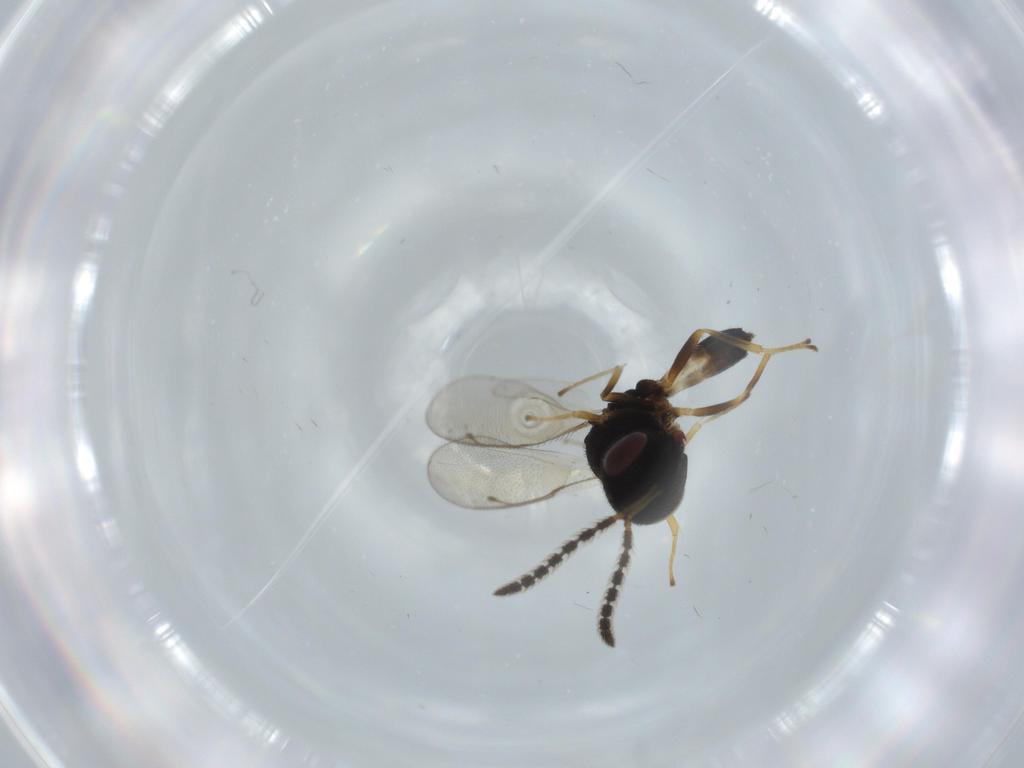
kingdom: Animalia
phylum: Arthropoda
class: Insecta
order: Hymenoptera
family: Pteromalidae
